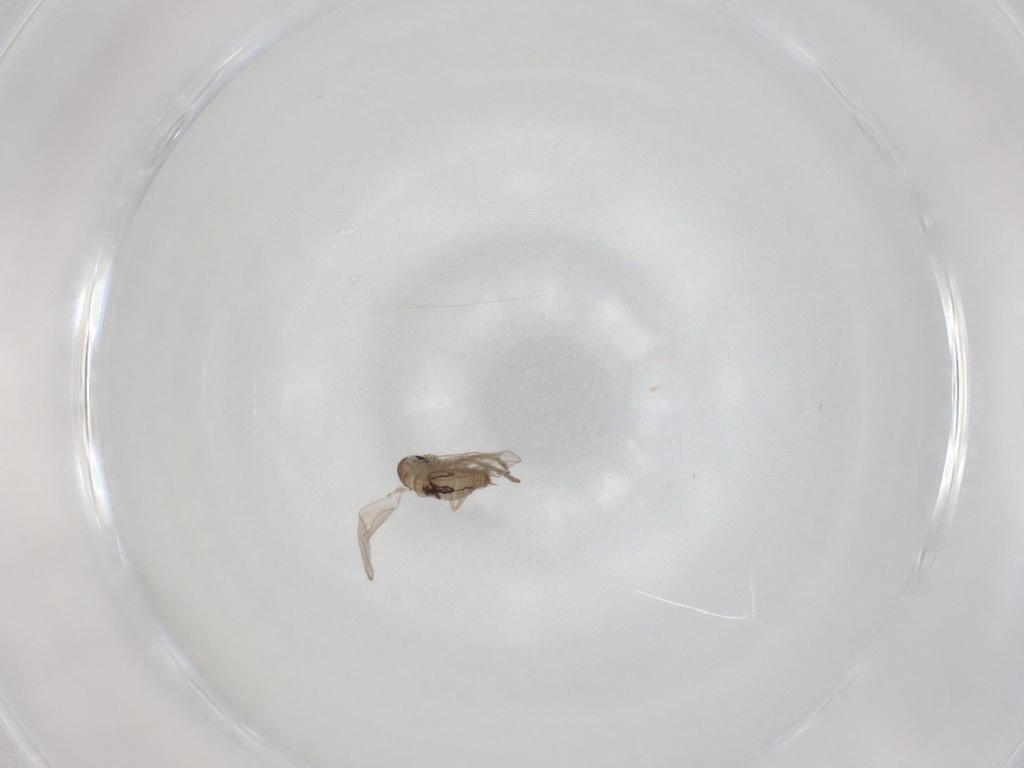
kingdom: Animalia
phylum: Arthropoda
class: Insecta
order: Diptera
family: Psychodidae
